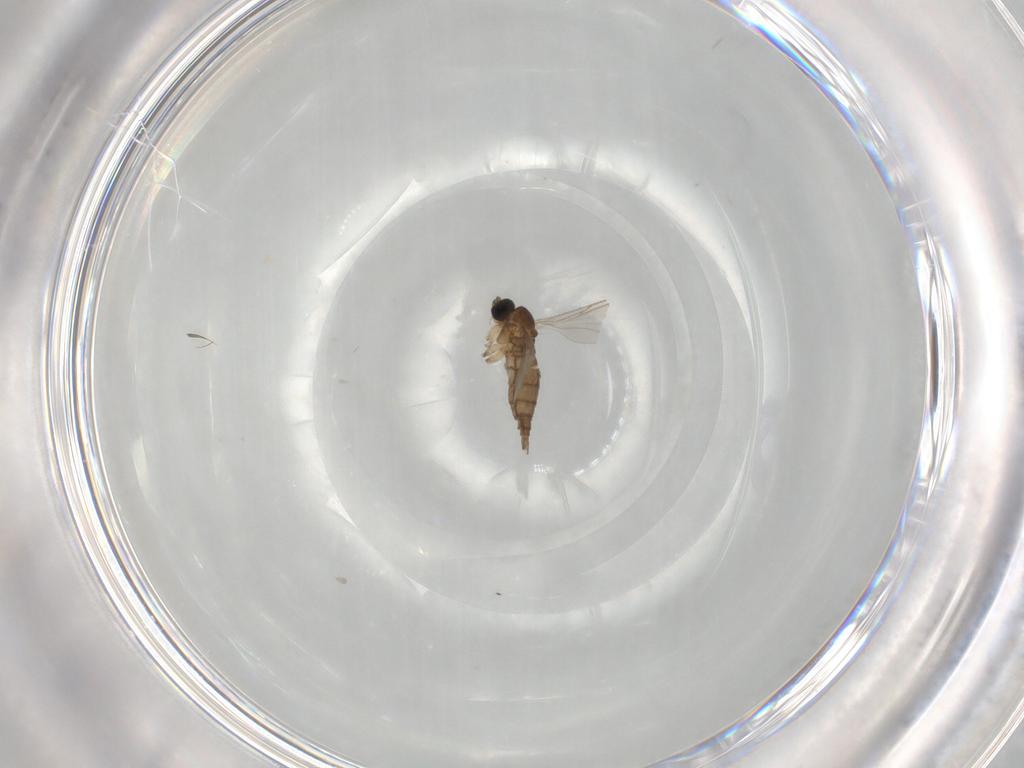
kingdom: Animalia
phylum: Arthropoda
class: Insecta
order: Diptera
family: Sciaridae
